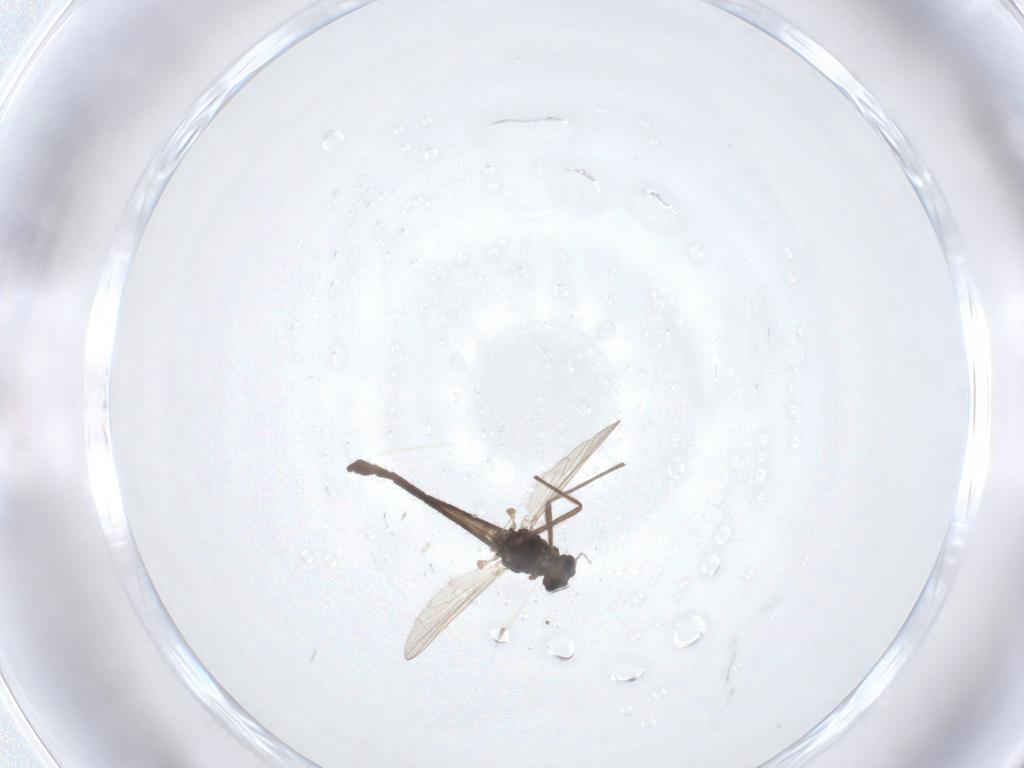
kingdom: Animalia
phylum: Arthropoda
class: Insecta
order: Diptera
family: Chironomidae
